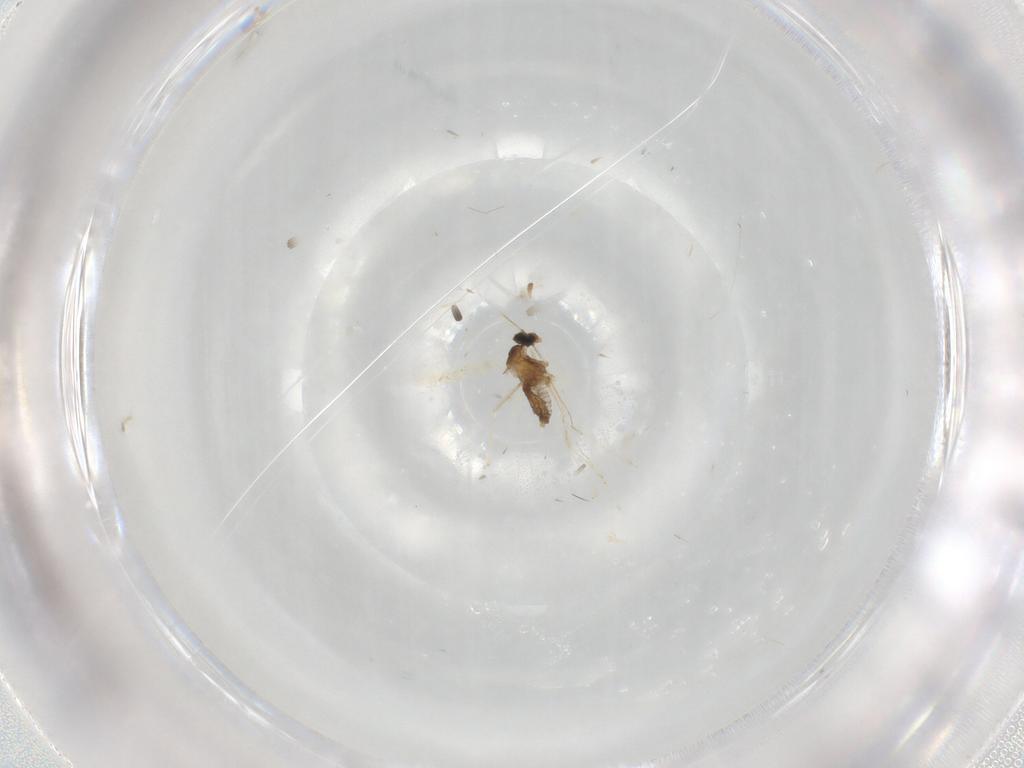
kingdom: Animalia
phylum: Arthropoda
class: Insecta
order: Diptera
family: Cecidomyiidae
